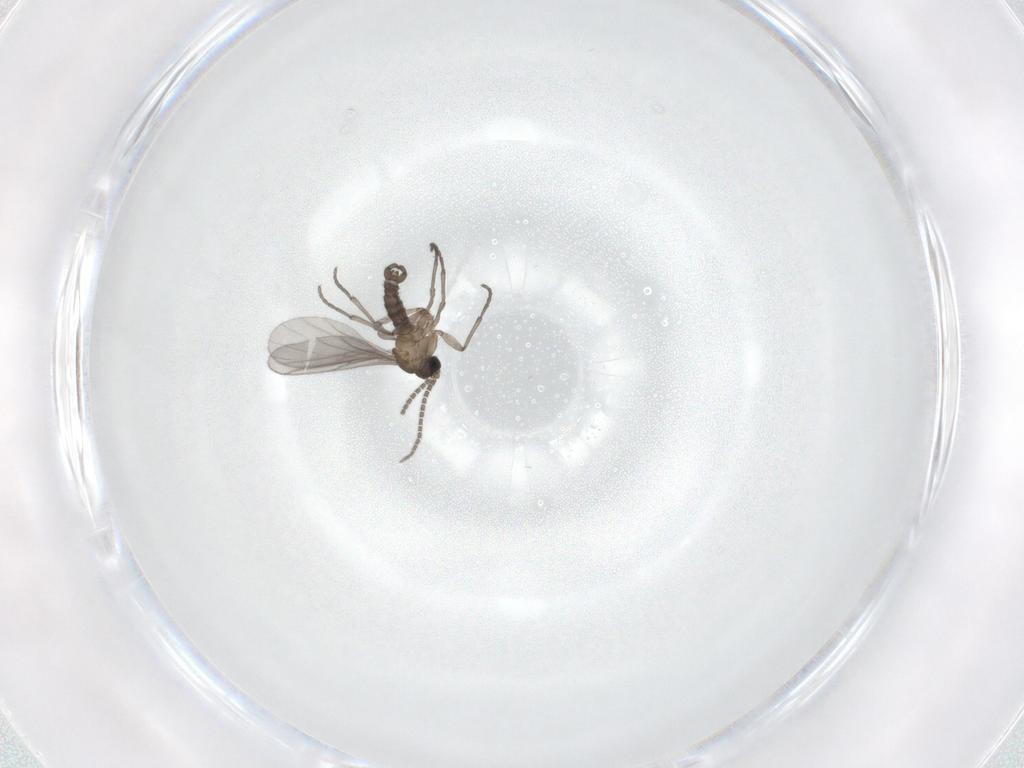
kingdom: Animalia
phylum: Arthropoda
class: Insecta
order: Diptera
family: Sciaridae
